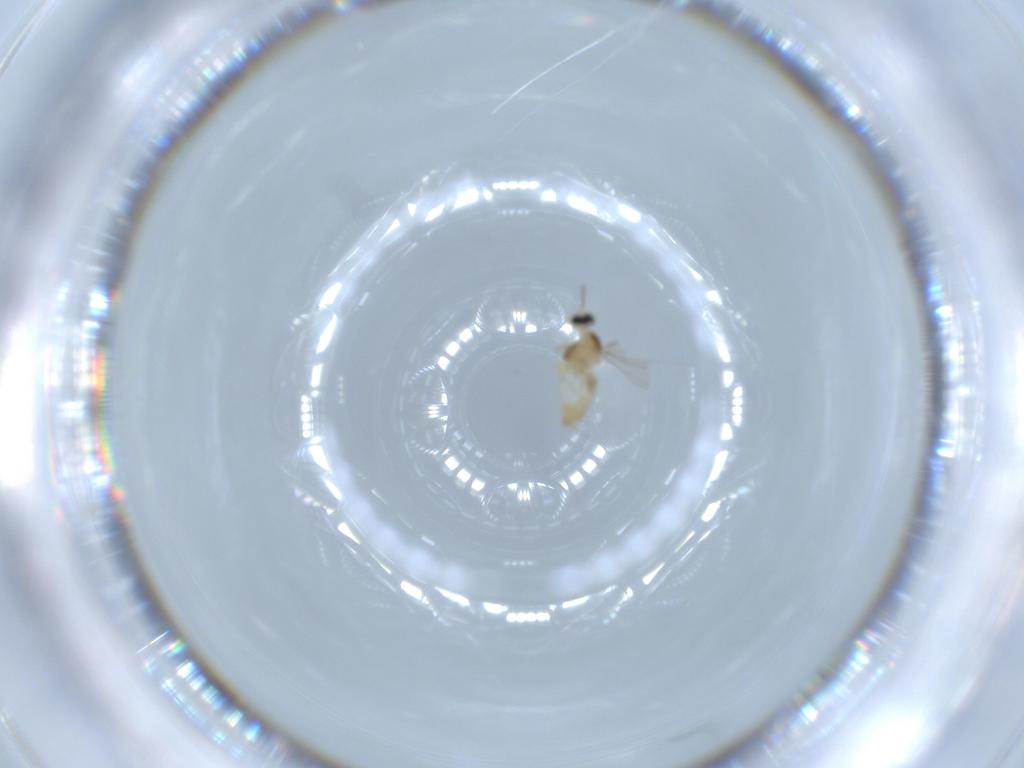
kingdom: Animalia
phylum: Arthropoda
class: Insecta
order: Diptera
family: Cecidomyiidae
